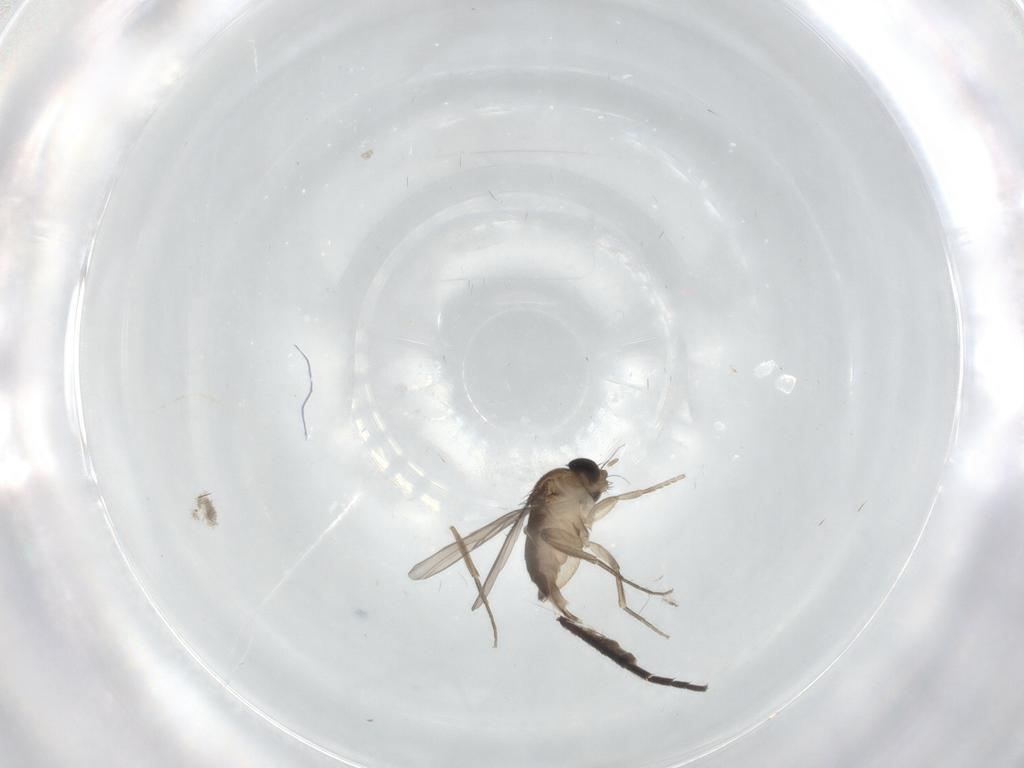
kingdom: Animalia
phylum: Arthropoda
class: Insecta
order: Diptera
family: Phoridae
